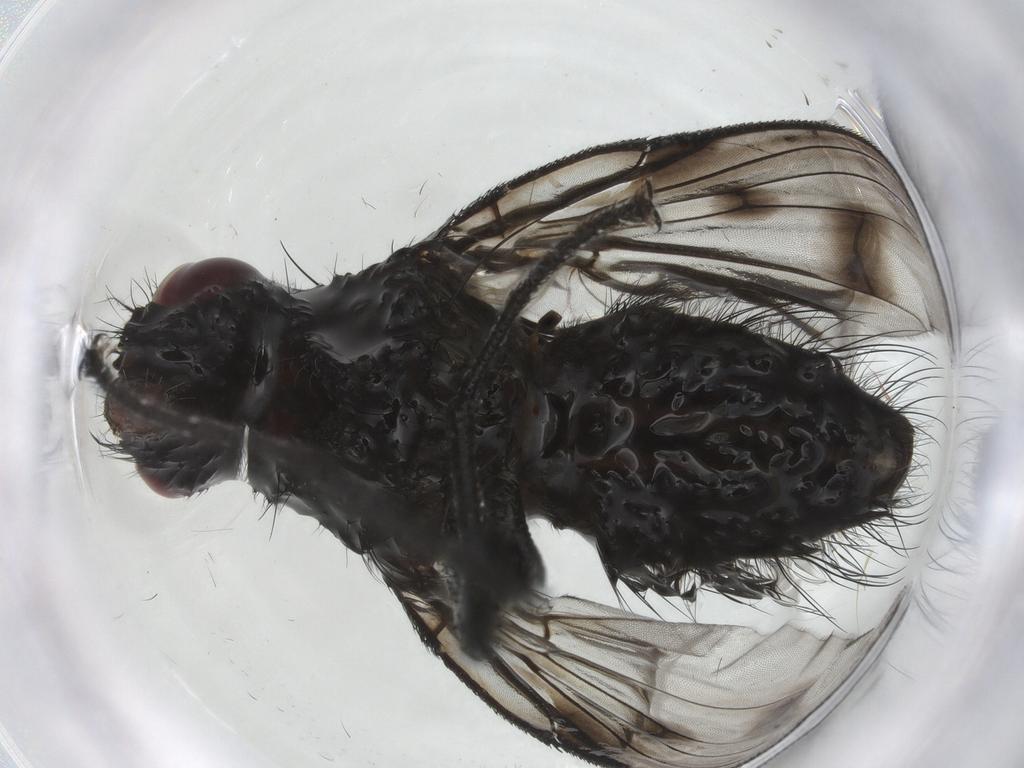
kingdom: Animalia
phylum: Arthropoda
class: Insecta
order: Diptera
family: Muscidae
